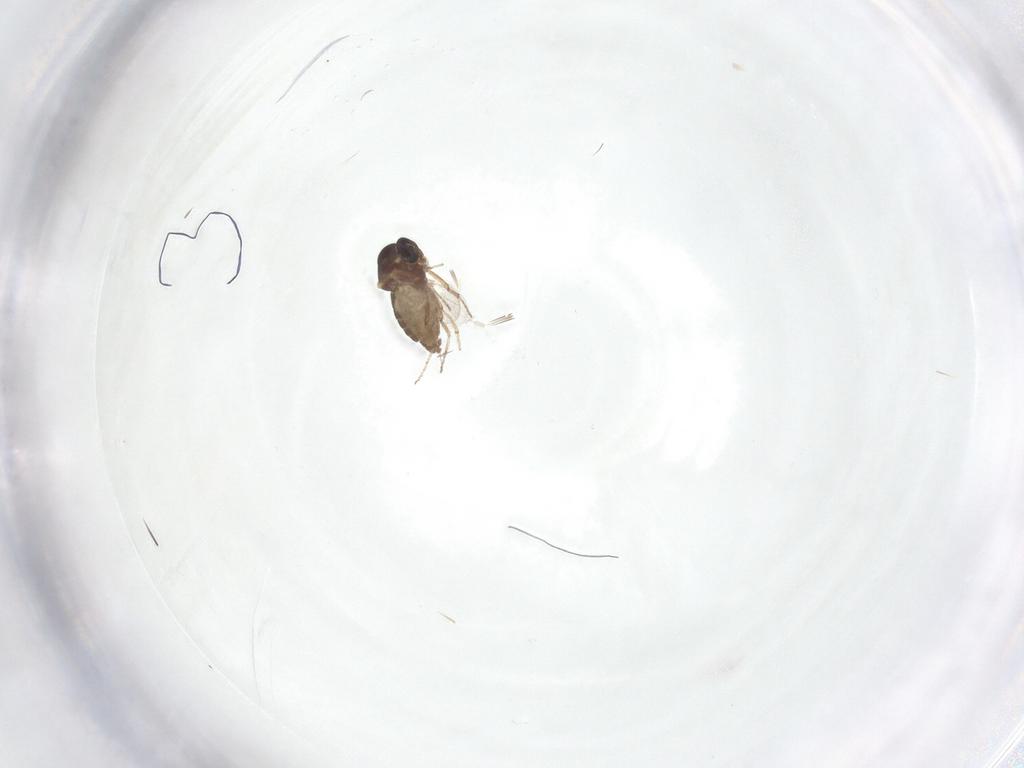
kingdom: Animalia
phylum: Arthropoda
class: Insecta
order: Diptera
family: Ceratopogonidae
